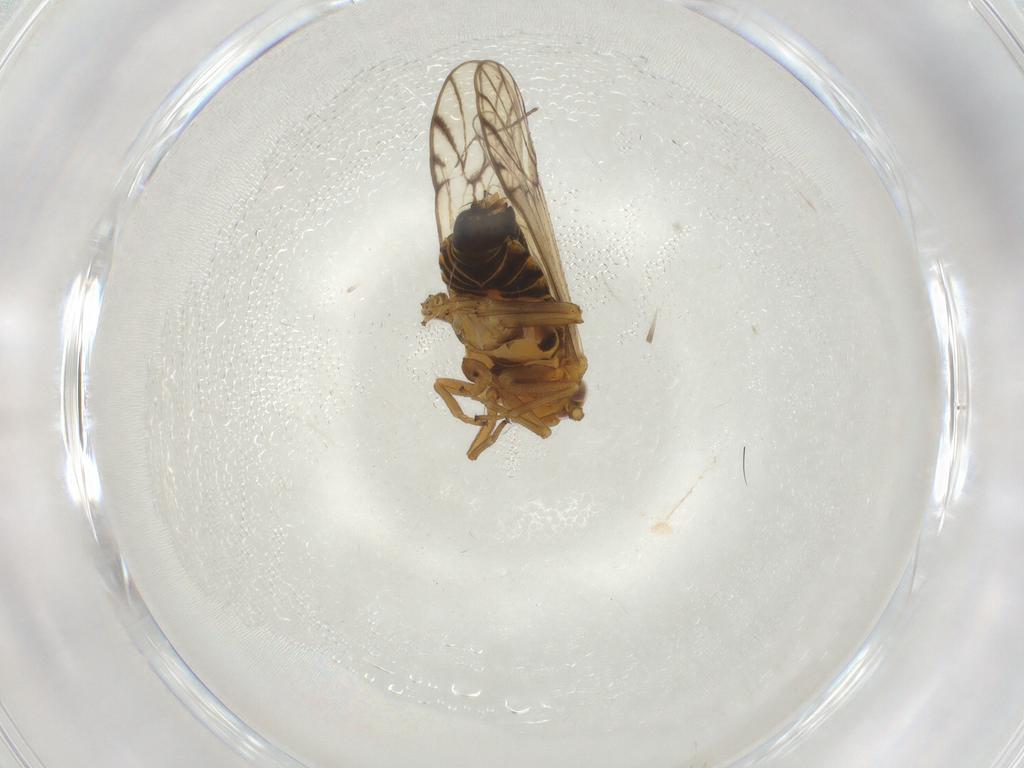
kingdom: Animalia
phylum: Arthropoda
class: Insecta
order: Hemiptera
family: Delphacidae
